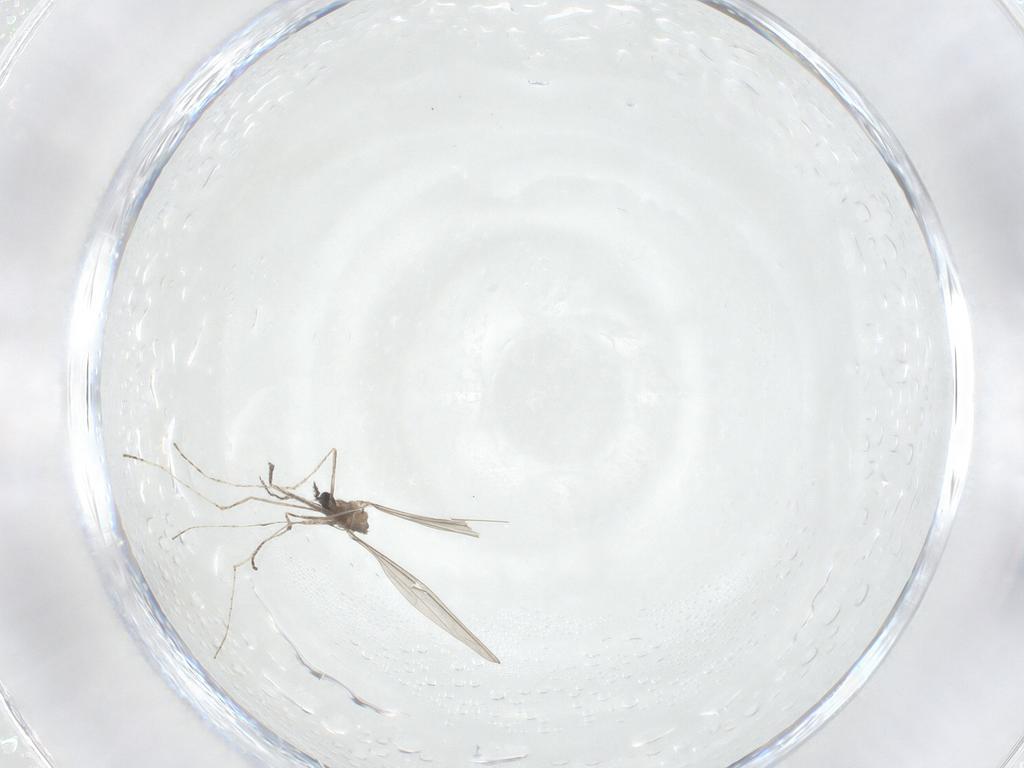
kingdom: Animalia
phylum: Arthropoda
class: Insecta
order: Diptera
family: Cecidomyiidae
